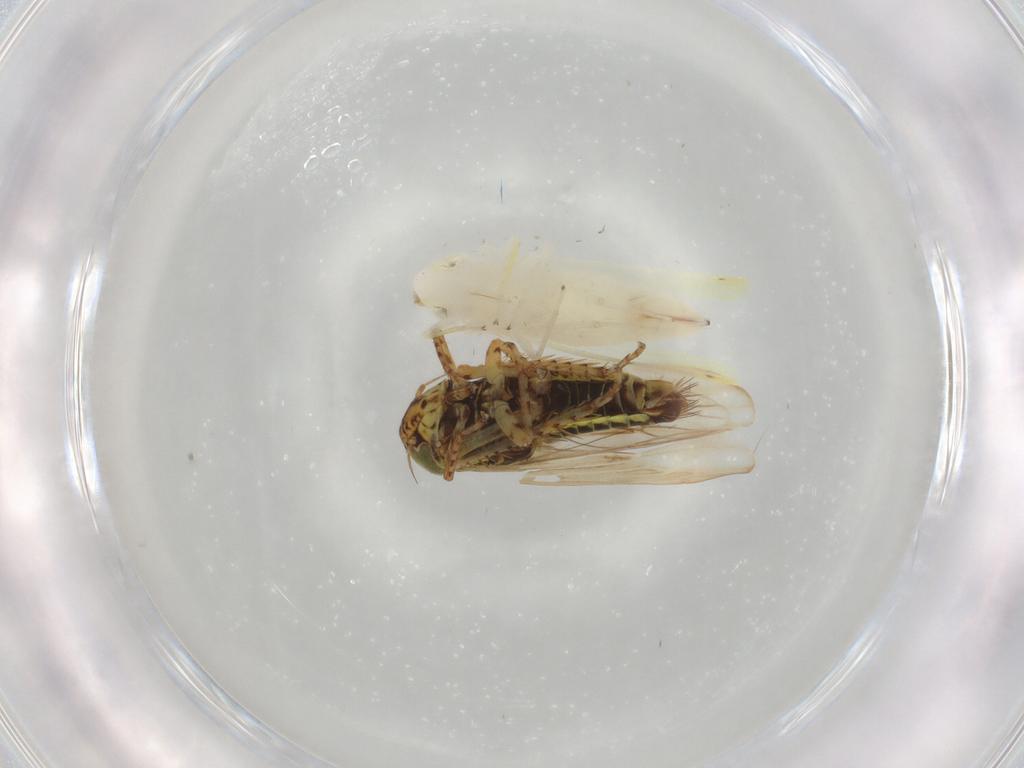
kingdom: Animalia
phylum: Arthropoda
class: Insecta
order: Hemiptera
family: Cicadellidae
